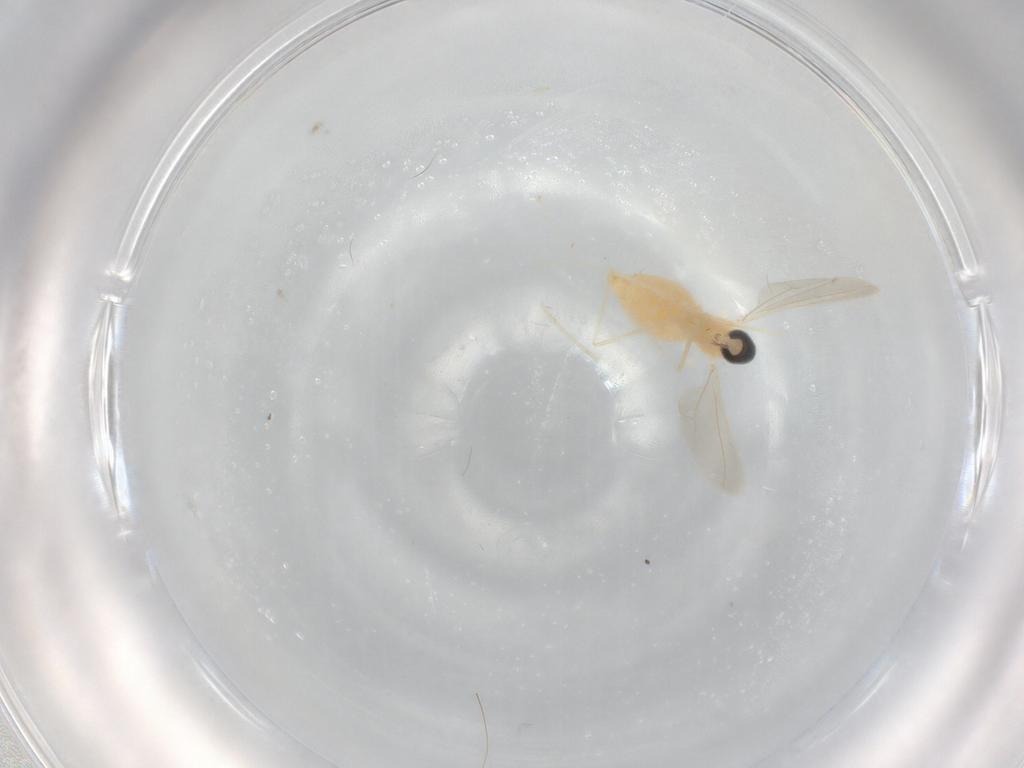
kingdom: Animalia
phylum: Arthropoda
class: Insecta
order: Diptera
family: Cecidomyiidae
